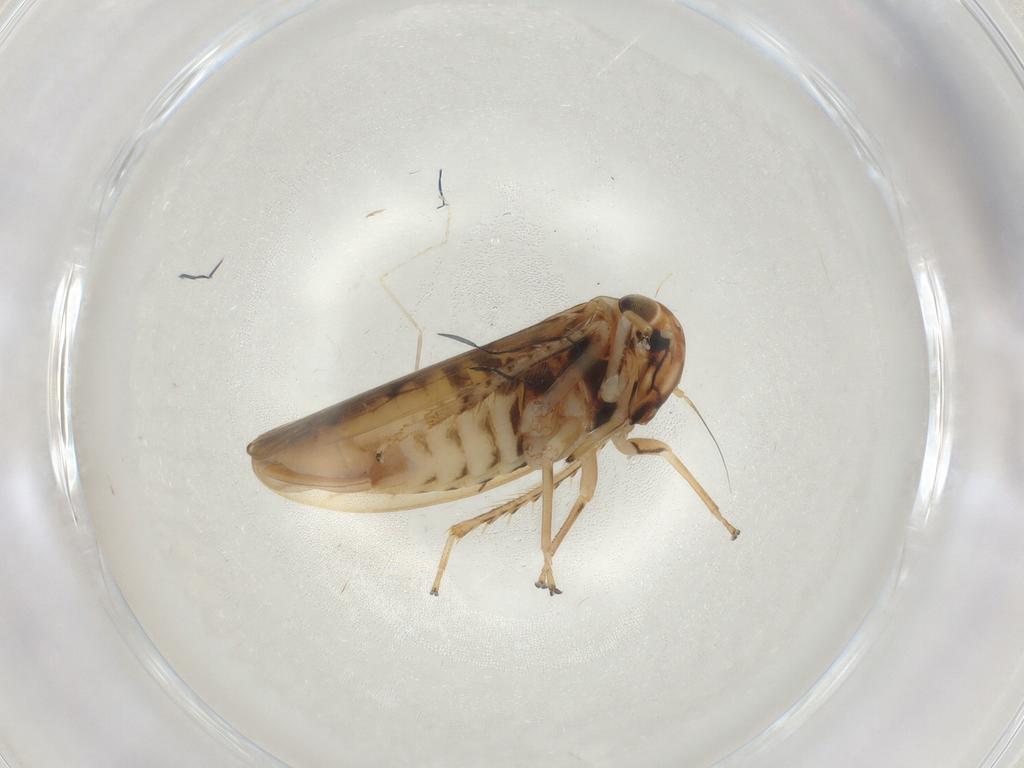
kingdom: Animalia
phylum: Arthropoda
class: Insecta
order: Hemiptera
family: Cicadellidae
